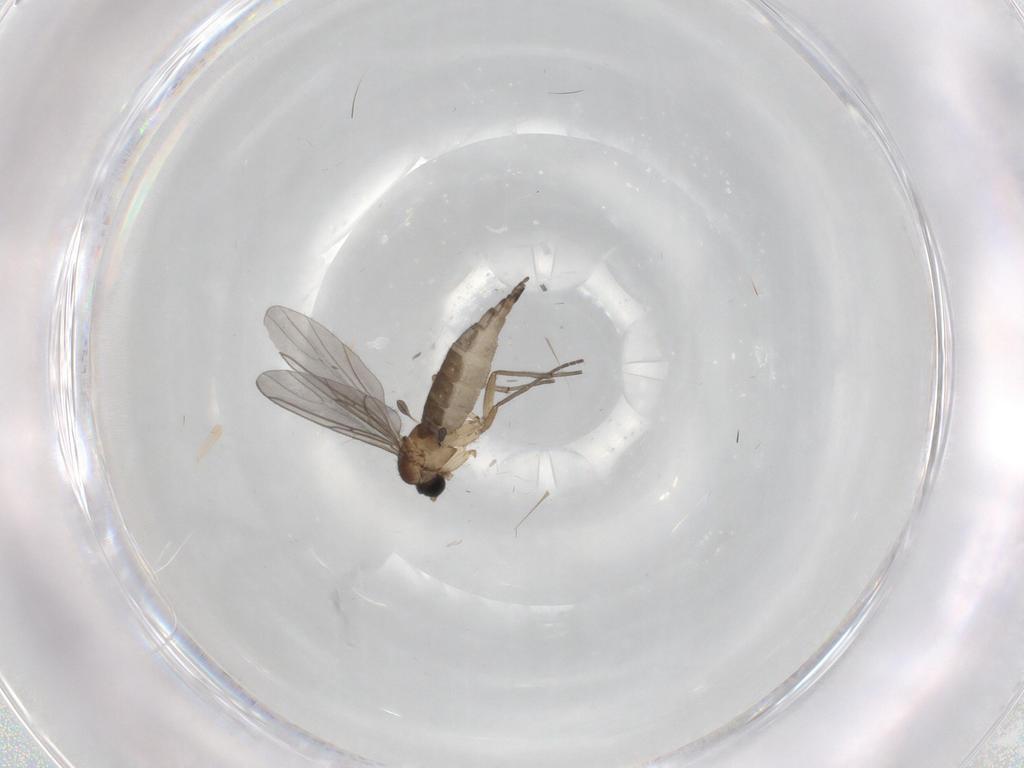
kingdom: Animalia
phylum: Arthropoda
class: Insecta
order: Diptera
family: Sciaridae
